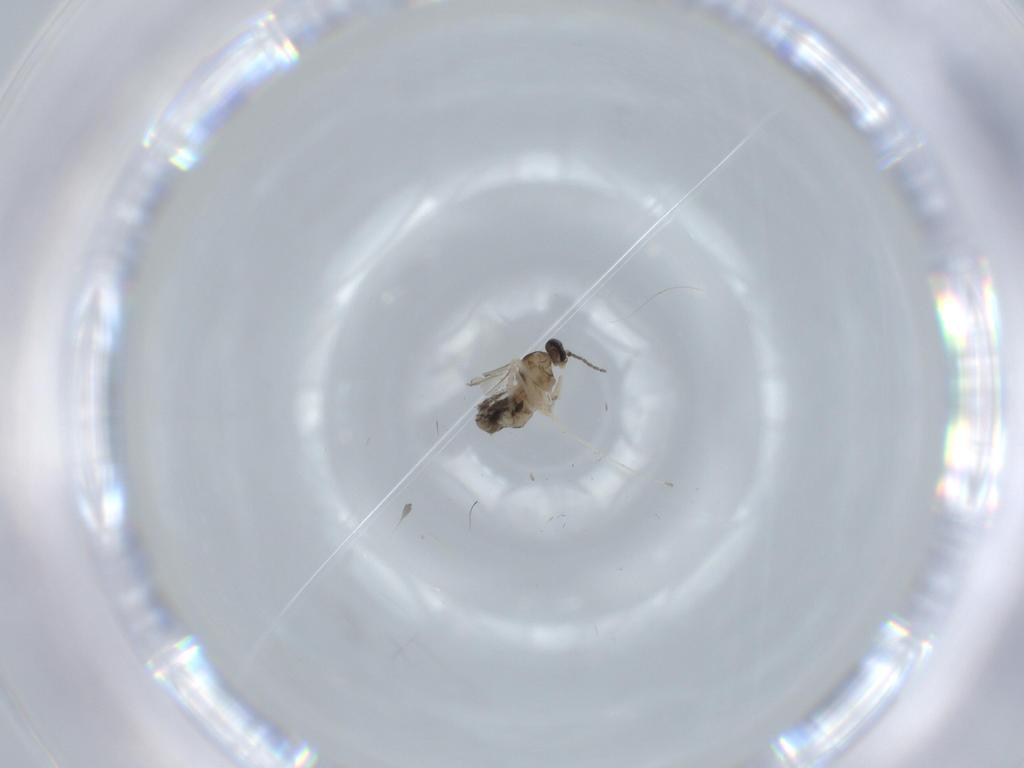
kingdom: Animalia
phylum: Arthropoda
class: Insecta
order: Diptera
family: Cecidomyiidae
